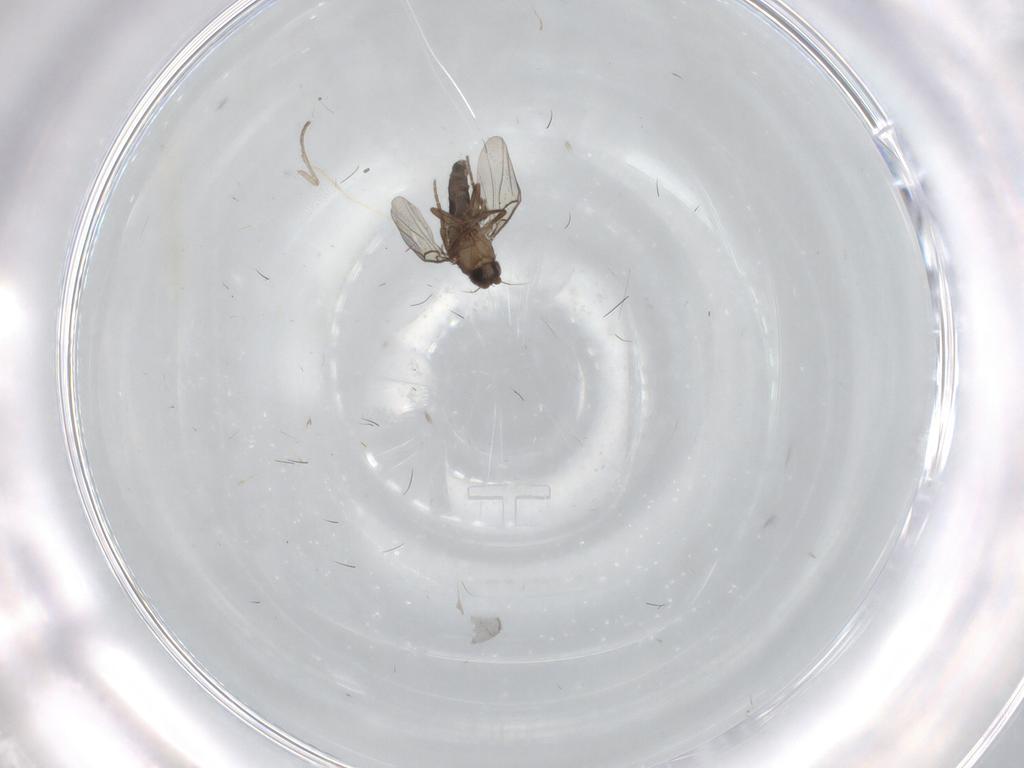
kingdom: Animalia
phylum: Arthropoda
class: Insecta
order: Diptera
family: Phoridae
